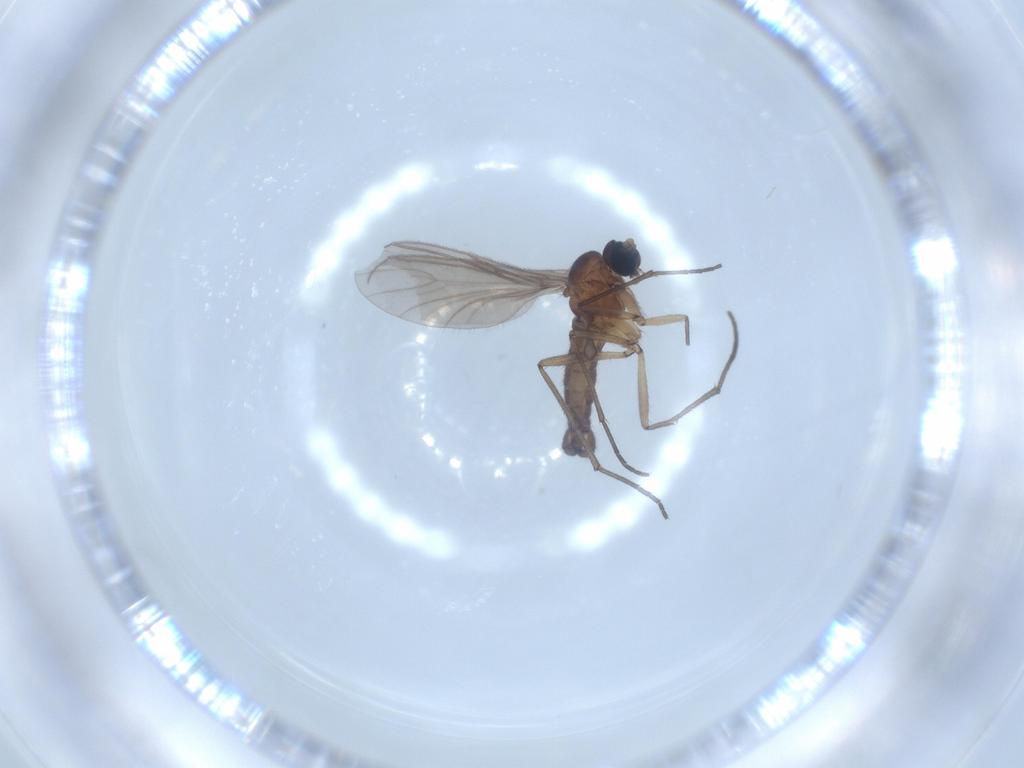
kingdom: Animalia
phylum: Arthropoda
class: Insecta
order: Diptera
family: Sciaridae
